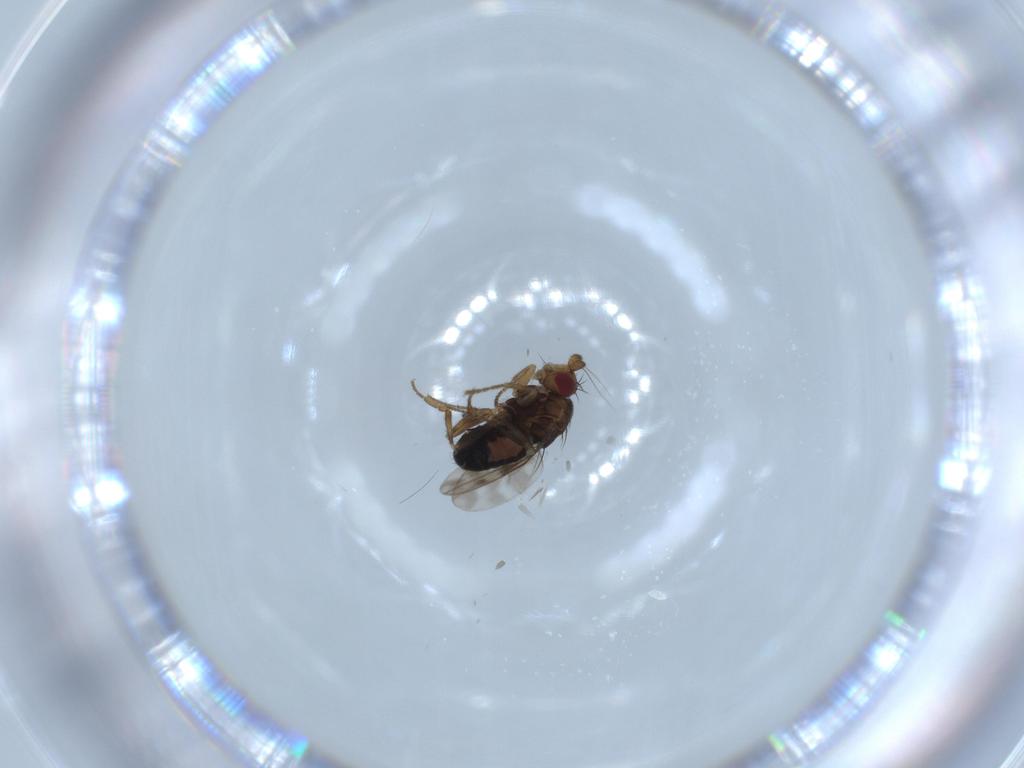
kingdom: Animalia
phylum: Arthropoda
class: Insecta
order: Diptera
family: Sphaeroceridae
